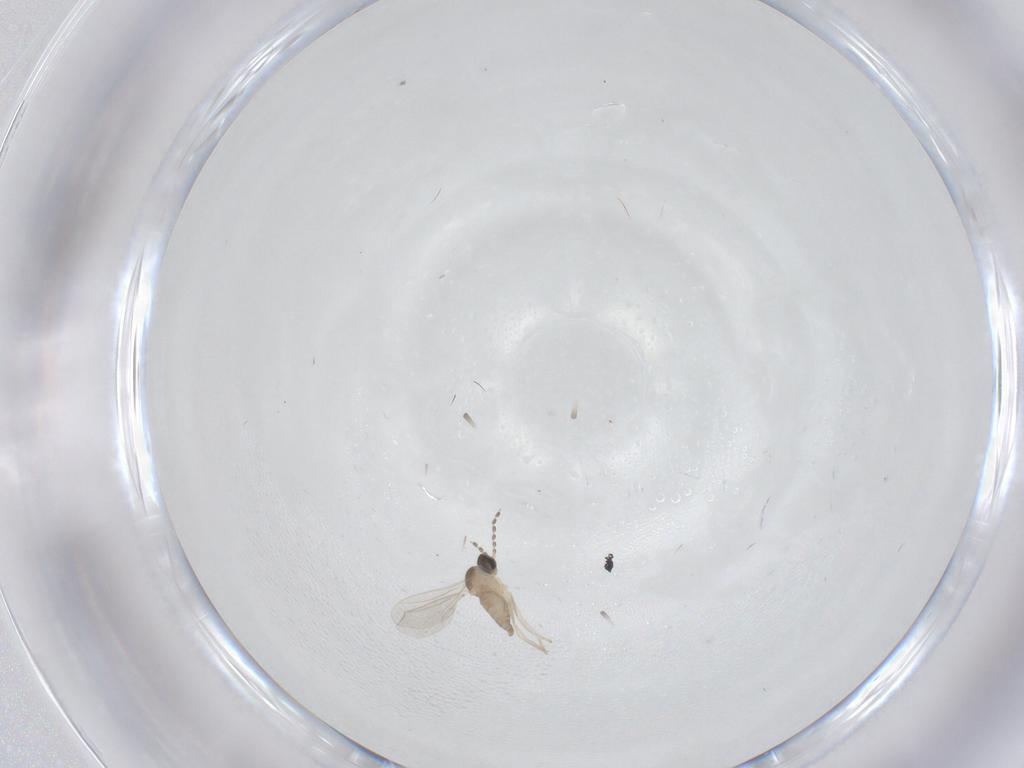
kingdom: Animalia
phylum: Arthropoda
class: Insecta
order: Diptera
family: Cecidomyiidae
